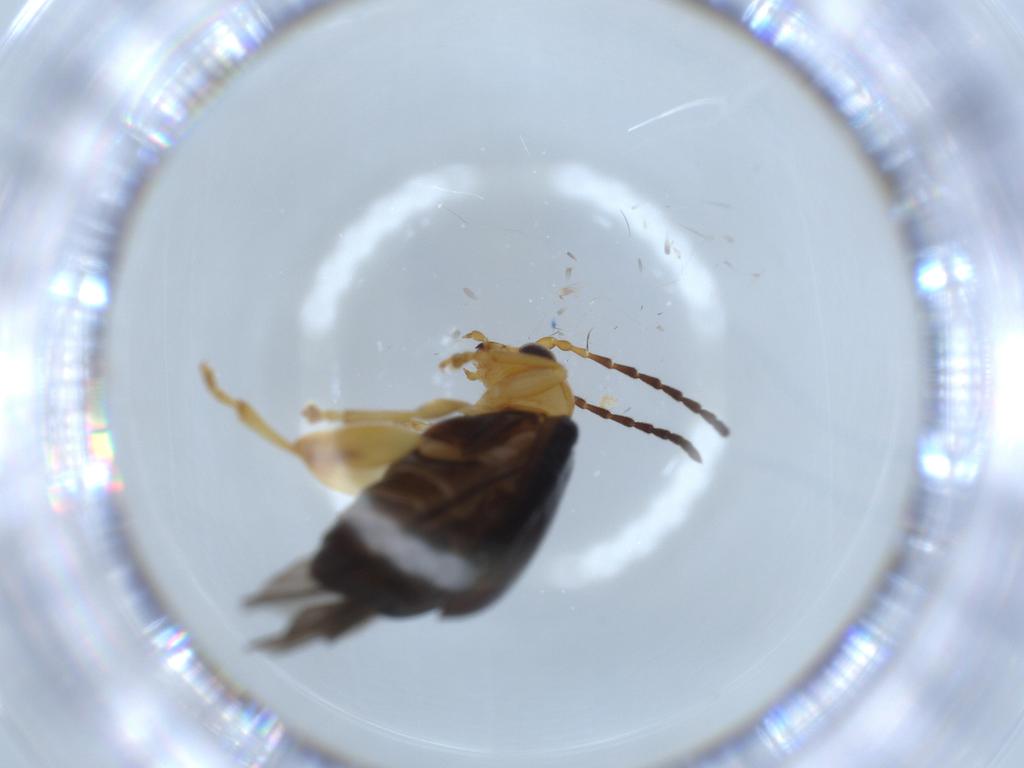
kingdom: Animalia
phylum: Arthropoda
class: Insecta
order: Coleoptera
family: Chrysomelidae
